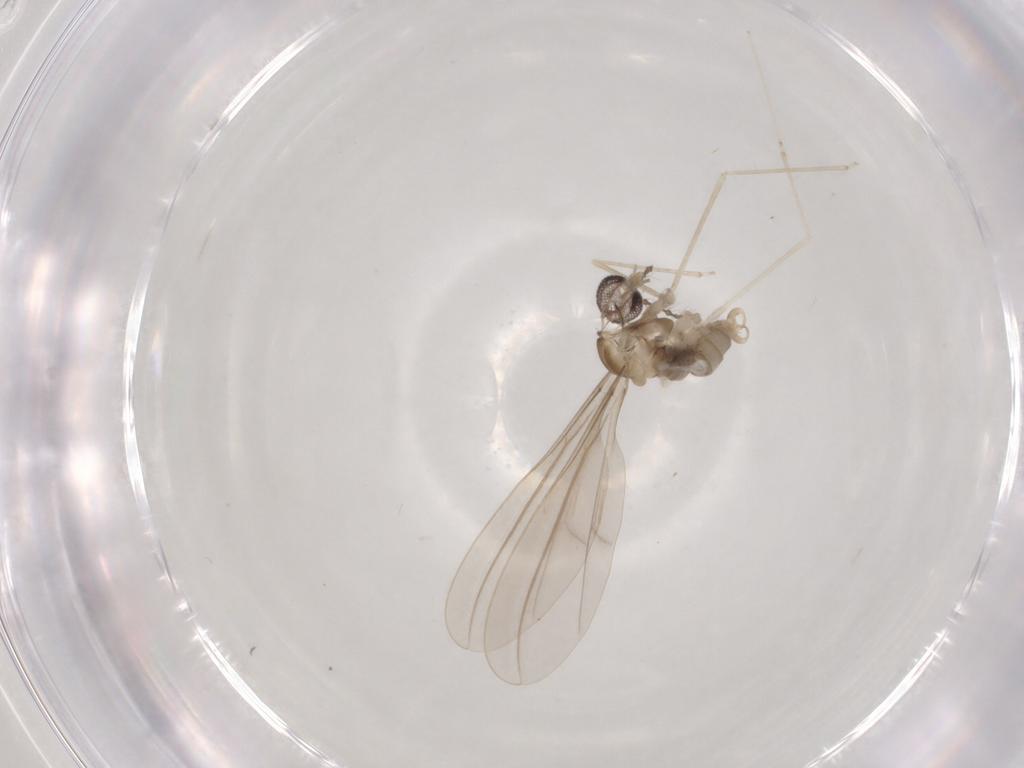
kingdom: Animalia
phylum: Arthropoda
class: Insecta
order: Diptera
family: Cecidomyiidae
